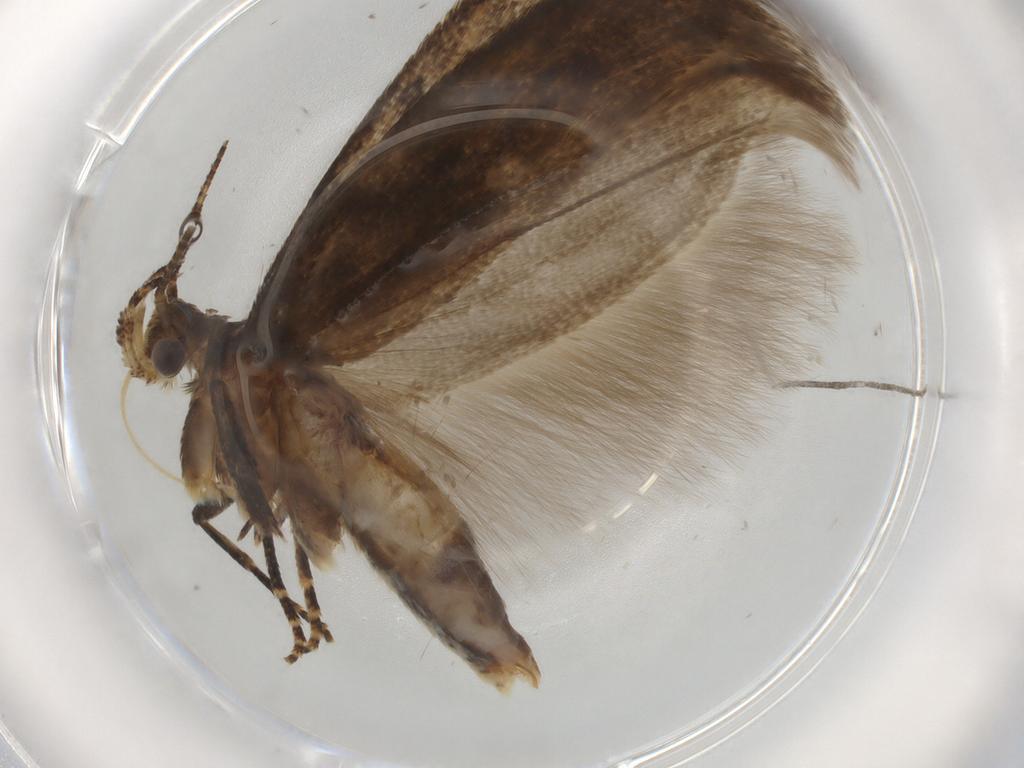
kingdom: Animalia
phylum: Arthropoda
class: Insecta
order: Lepidoptera
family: Gelechiidae
